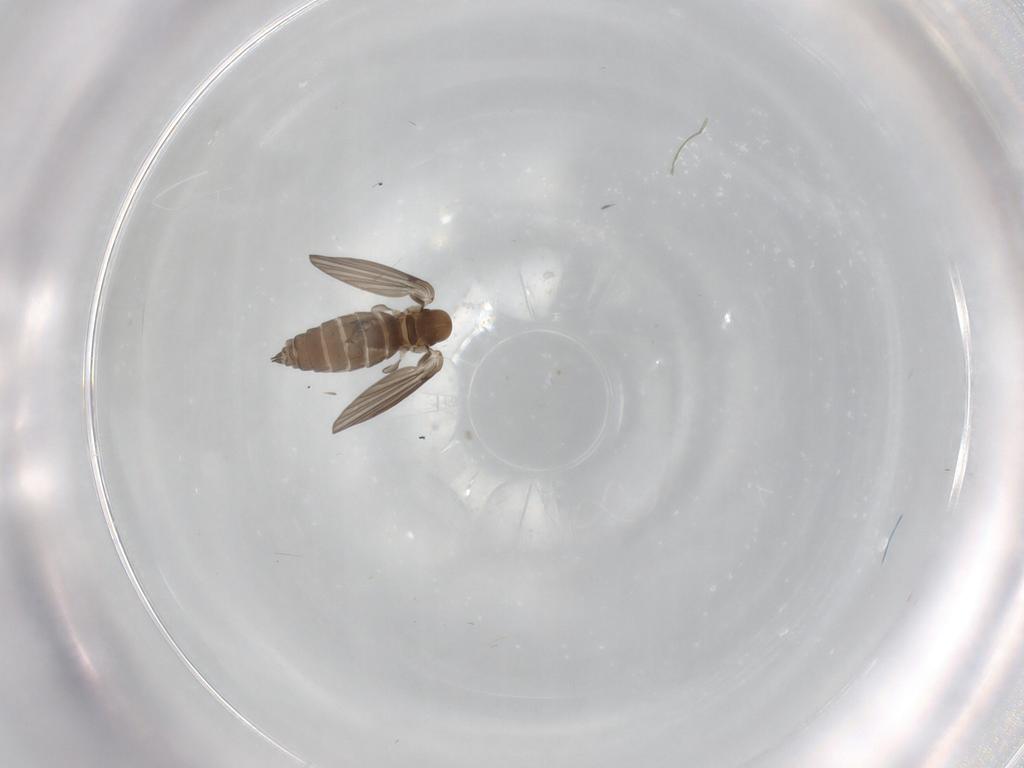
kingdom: Animalia
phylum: Arthropoda
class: Insecta
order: Diptera
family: Psychodidae
